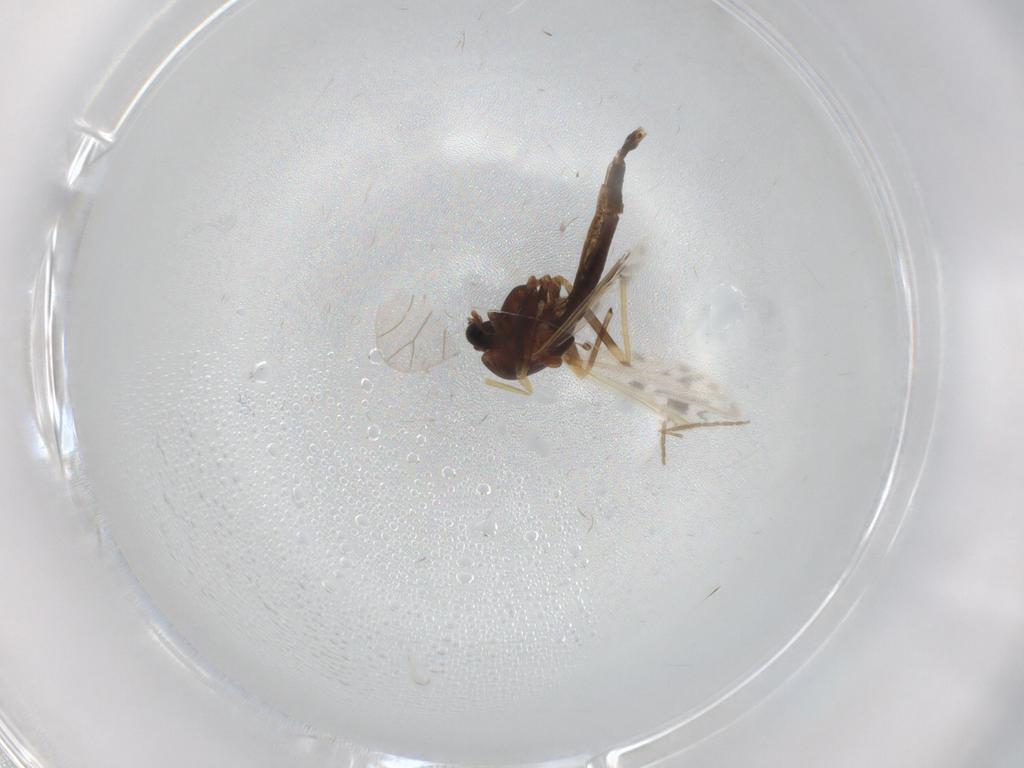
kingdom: Animalia
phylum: Arthropoda
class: Insecta
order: Diptera
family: Chironomidae
